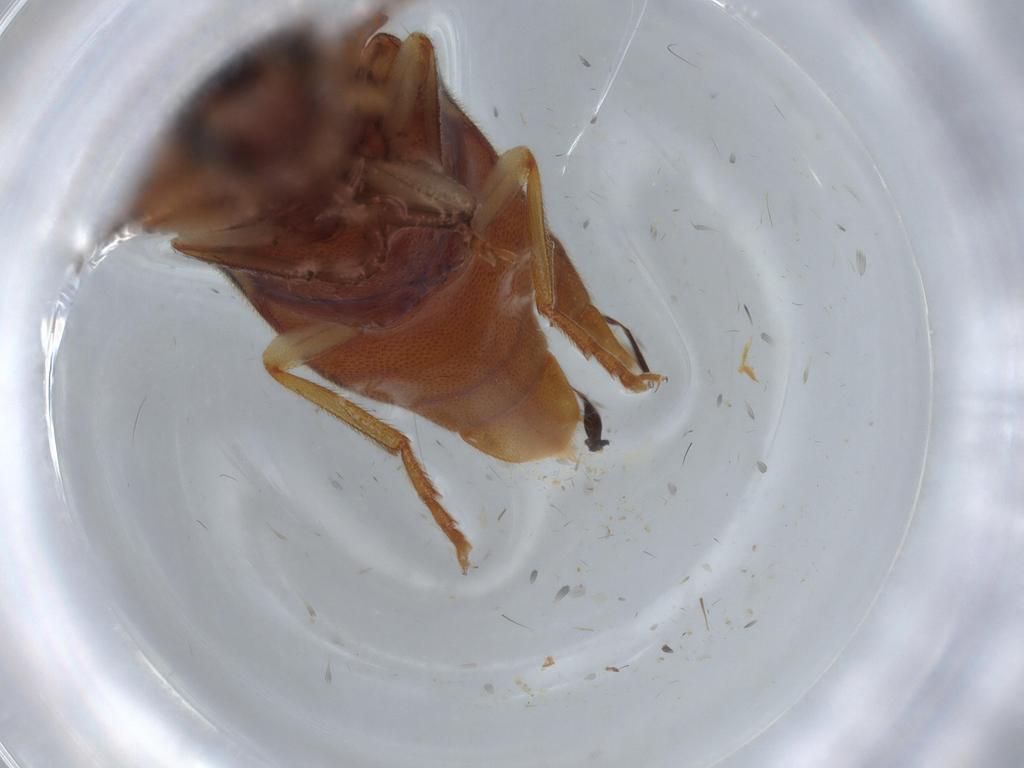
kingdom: Animalia
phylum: Arthropoda
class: Insecta
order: Coleoptera
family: Elateridae
